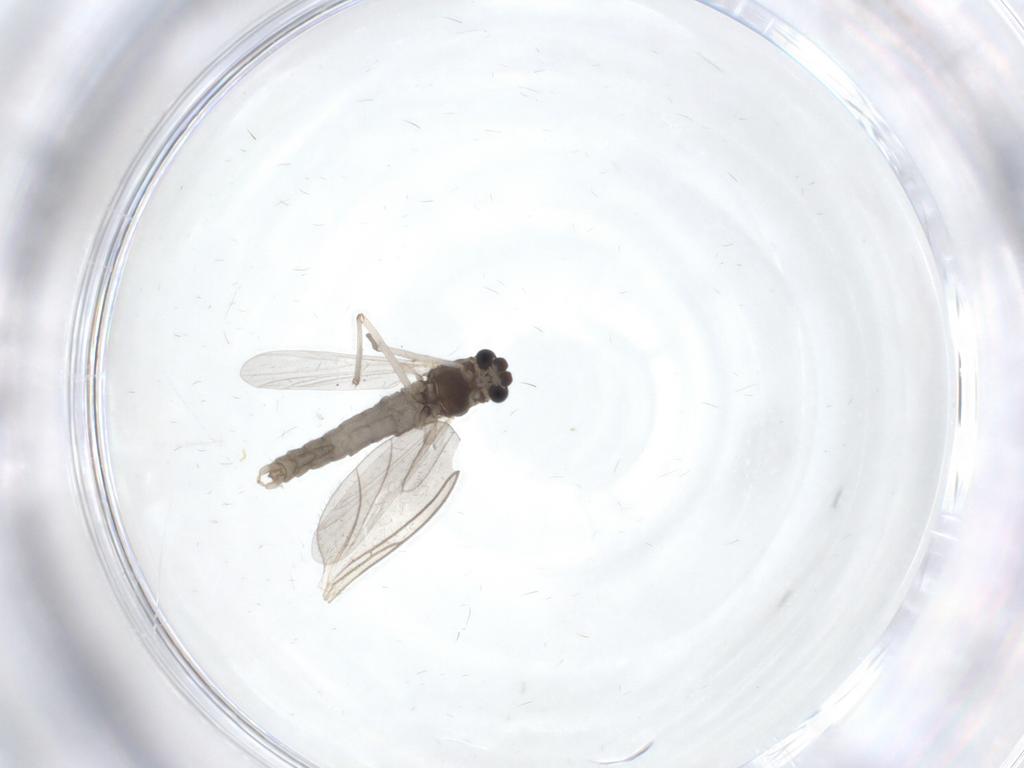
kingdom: Animalia
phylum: Arthropoda
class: Insecta
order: Diptera
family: Chironomidae
